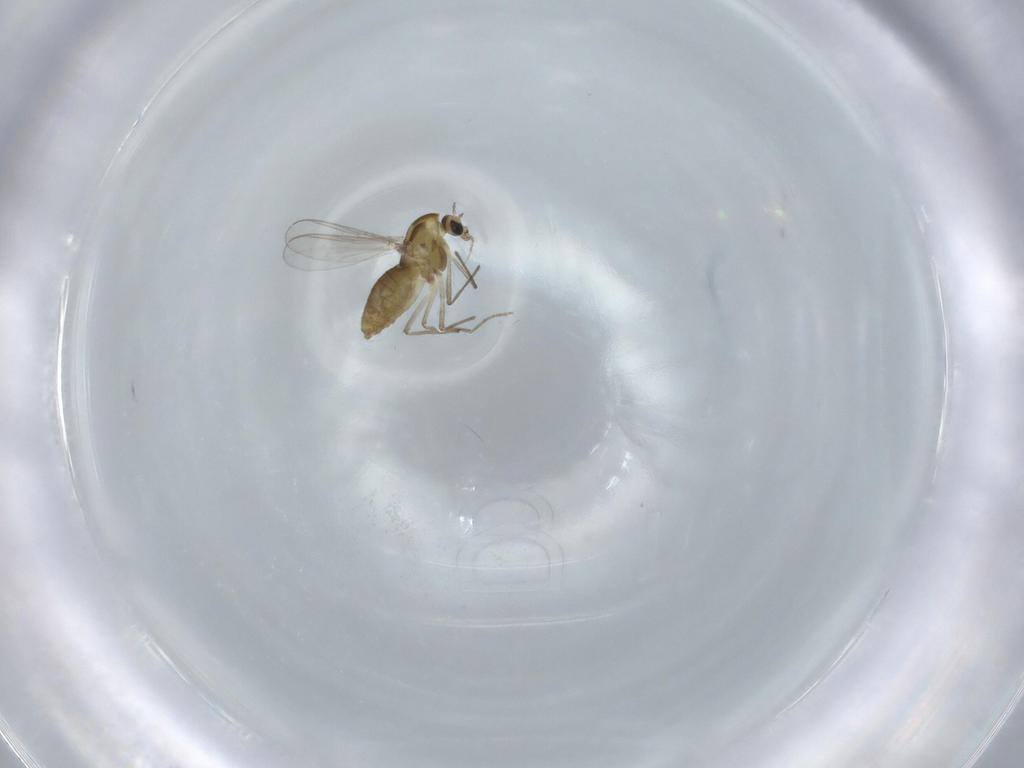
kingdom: Animalia
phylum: Arthropoda
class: Insecta
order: Diptera
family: Chironomidae
